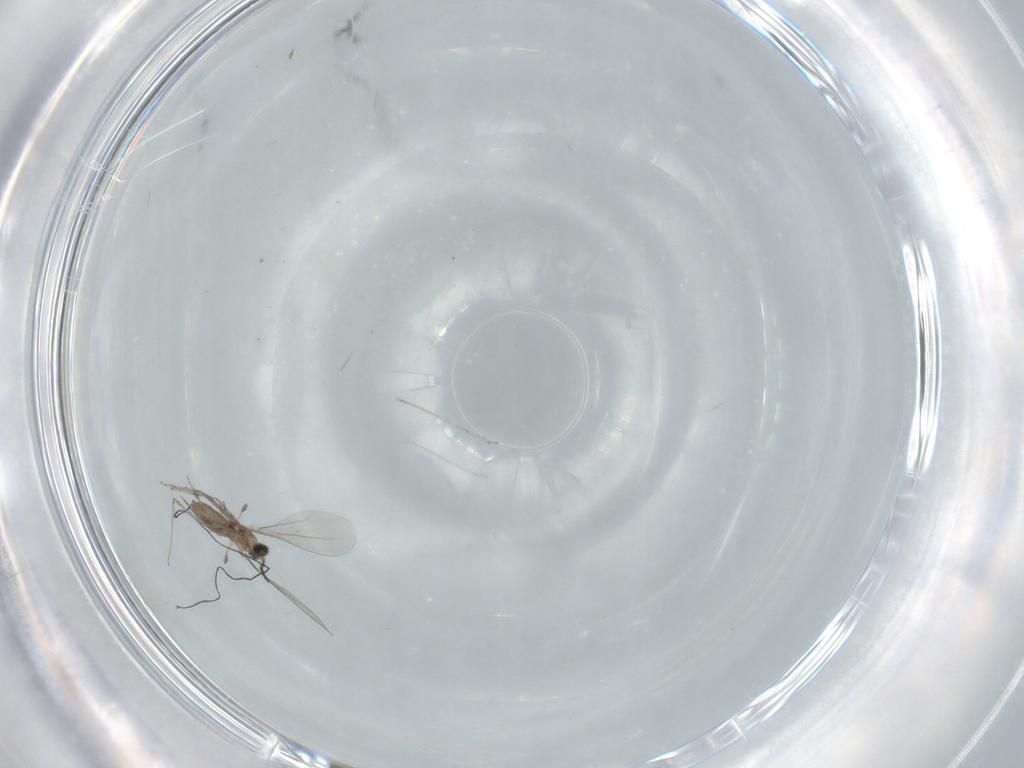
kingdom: Animalia
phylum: Arthropoda
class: Insecta
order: Diptera
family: Cecidomyiidae
